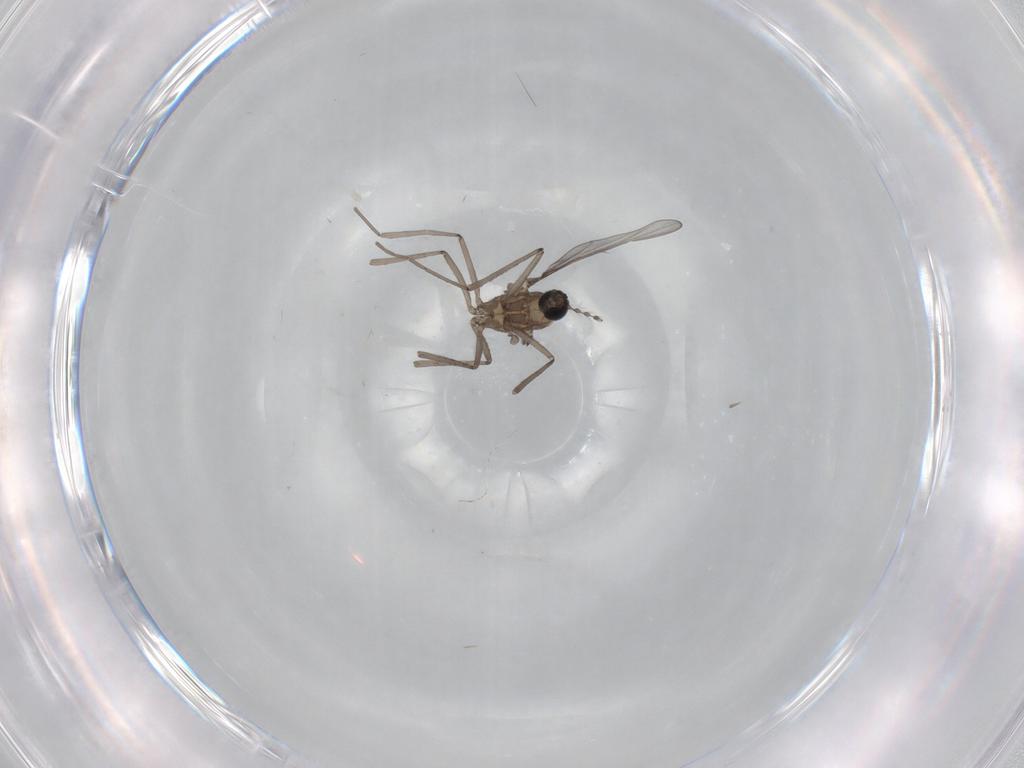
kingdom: Animalia
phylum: Arthropoda
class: Insecta
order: Diptera
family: Cecidomyiidae
